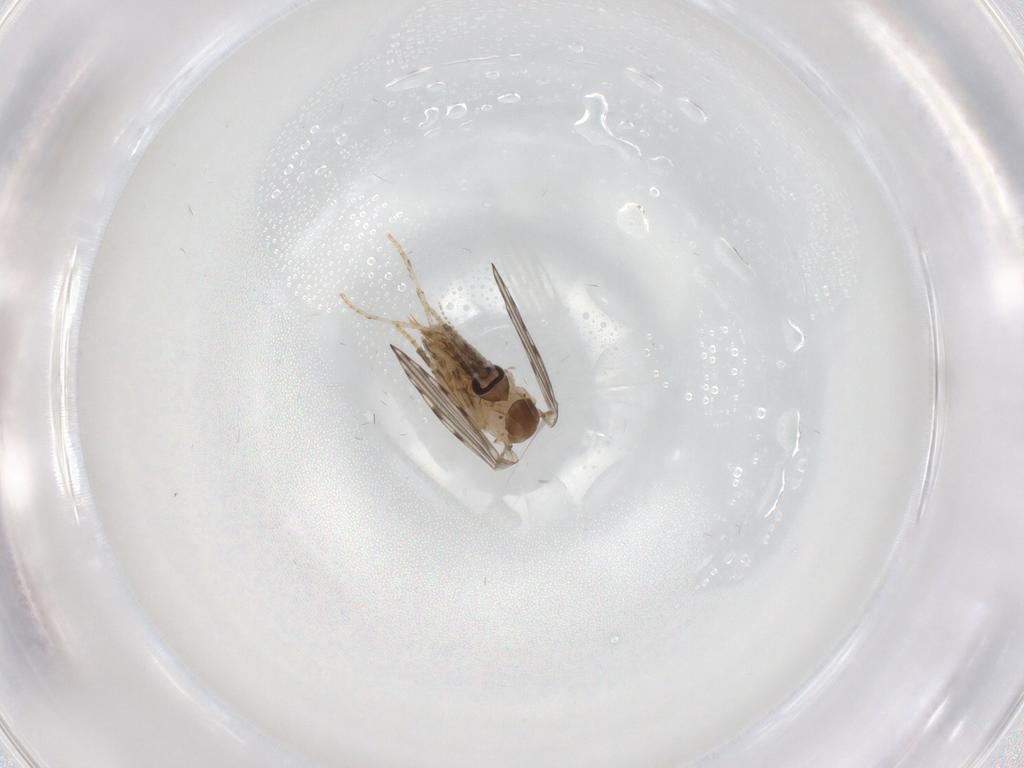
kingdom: Animalia
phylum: Arthropoda
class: Insecta
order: Diptera
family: Psychodidae
